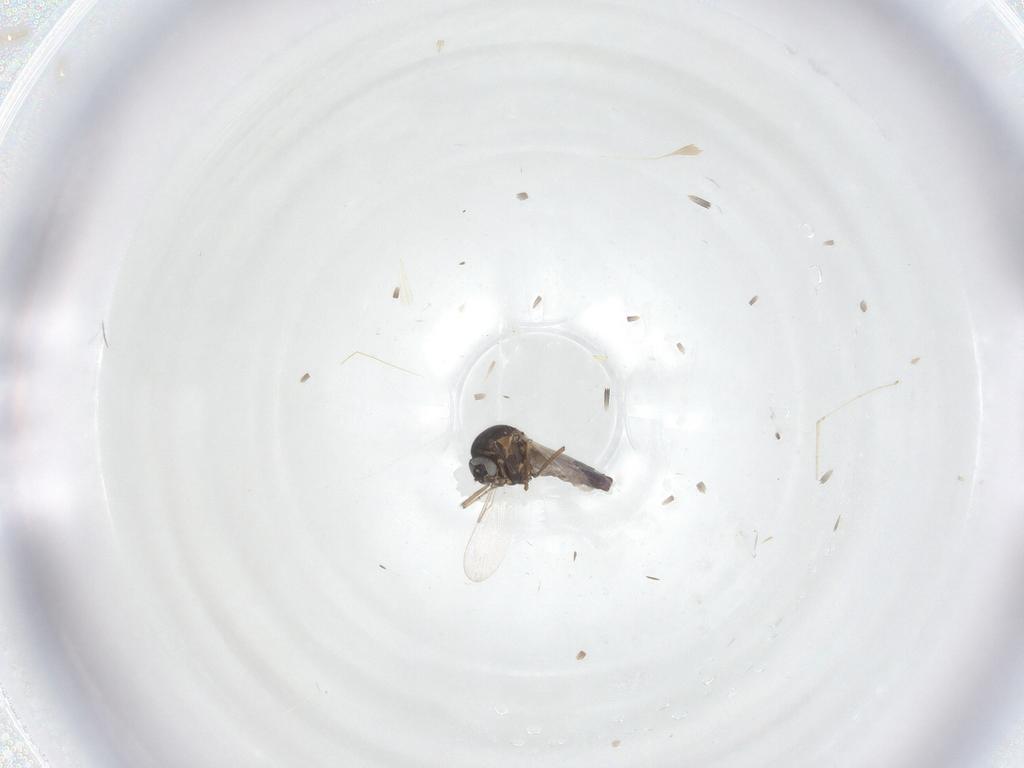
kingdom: Animalia
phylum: Arthropoda
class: Insecta
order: Diptera
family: Ceratopogonidae
